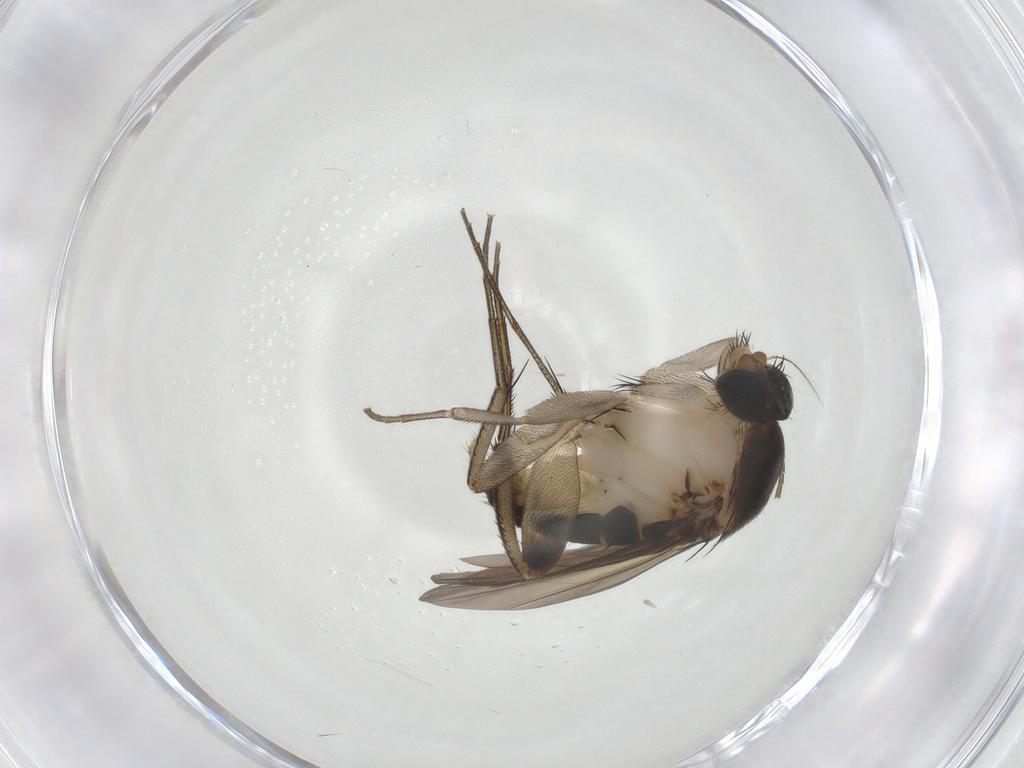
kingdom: Animalia
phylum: Arthropoda
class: Insecta
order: Diptera
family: Phoridae
